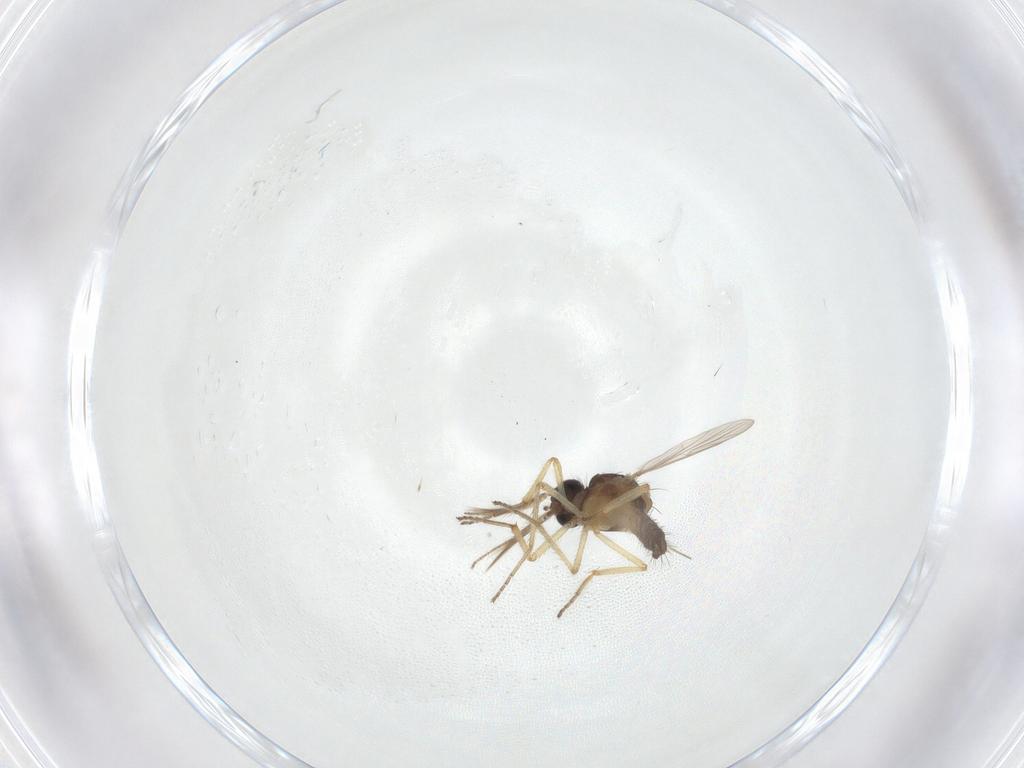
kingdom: Animalia
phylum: Arthropoda
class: Insecta
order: Diptera
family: Ceratopogonidae
